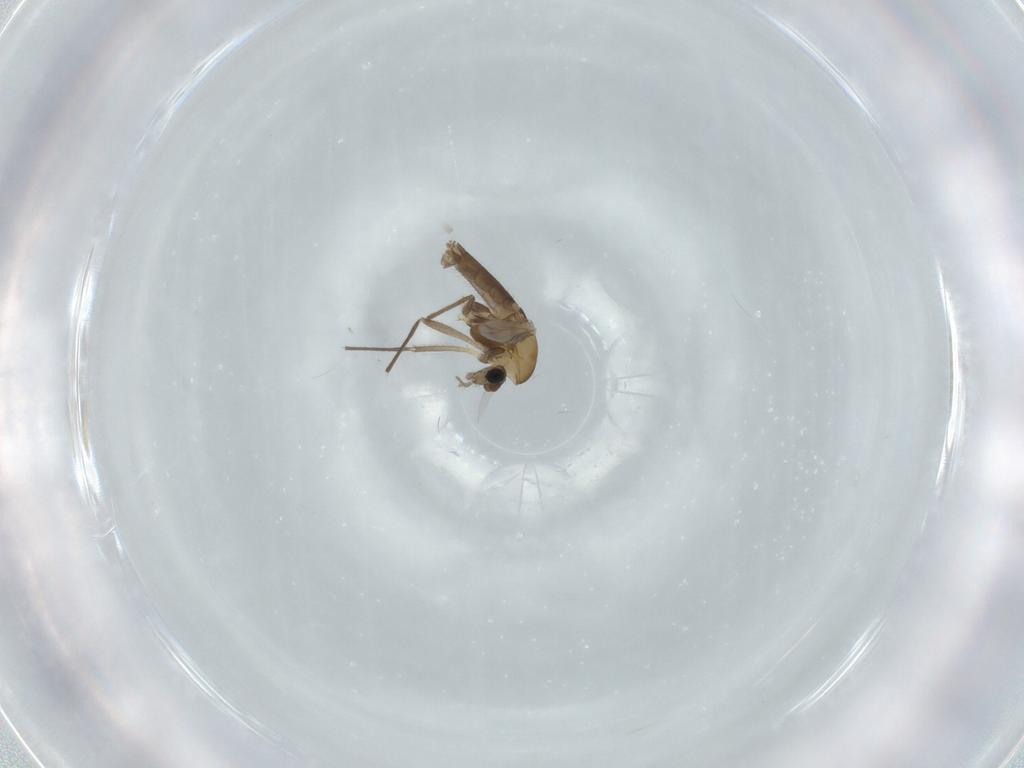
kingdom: Animalia
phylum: Arthropoda
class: Insecta
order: Diptera
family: Chironomidae
